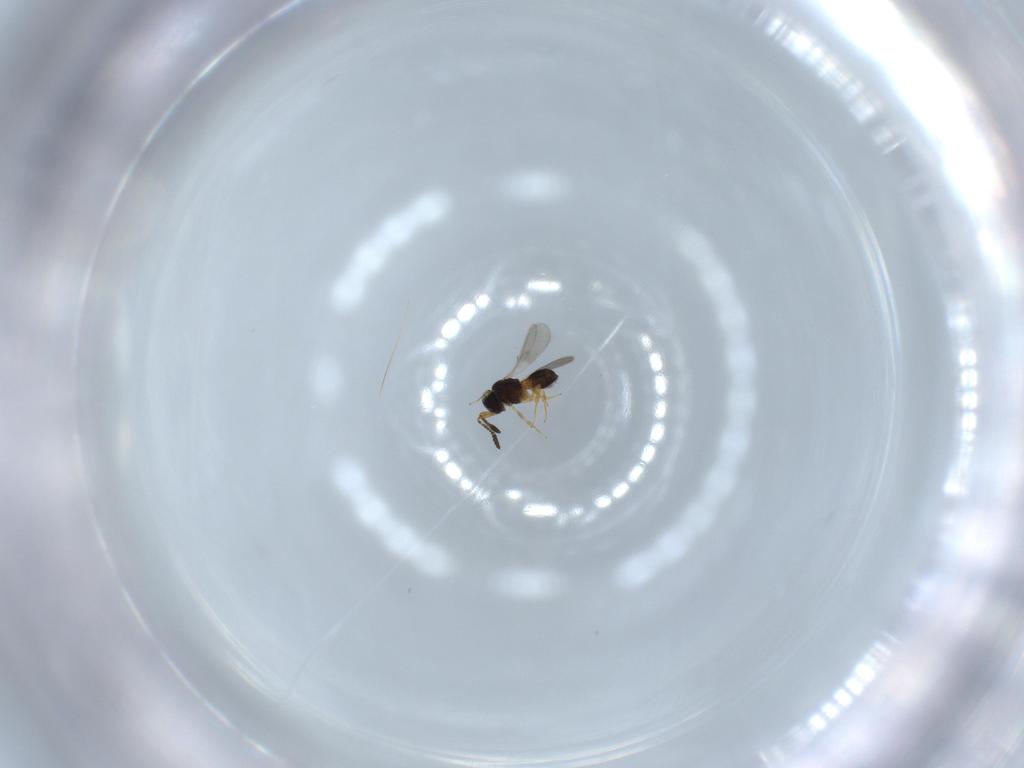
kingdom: Animalia
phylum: Arthropoda
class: Insecta
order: Hymenoptera
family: Scelionidae
